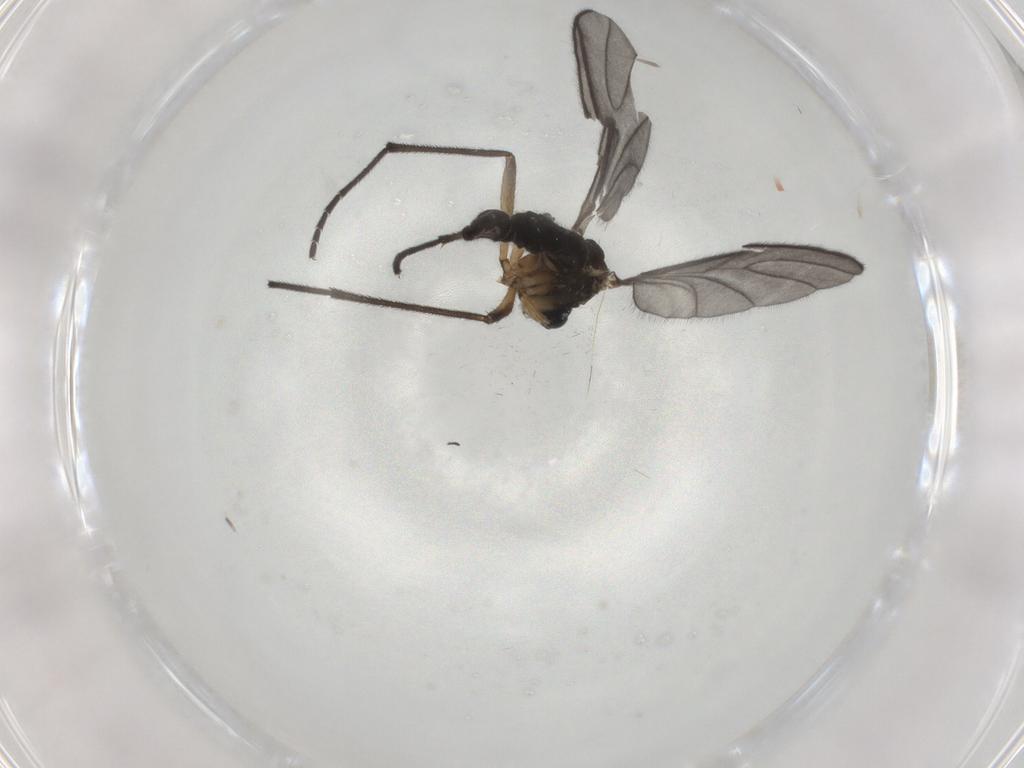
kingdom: Animalia
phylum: Arthropoda
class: Insecta
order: Diptera
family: Sciaridae
